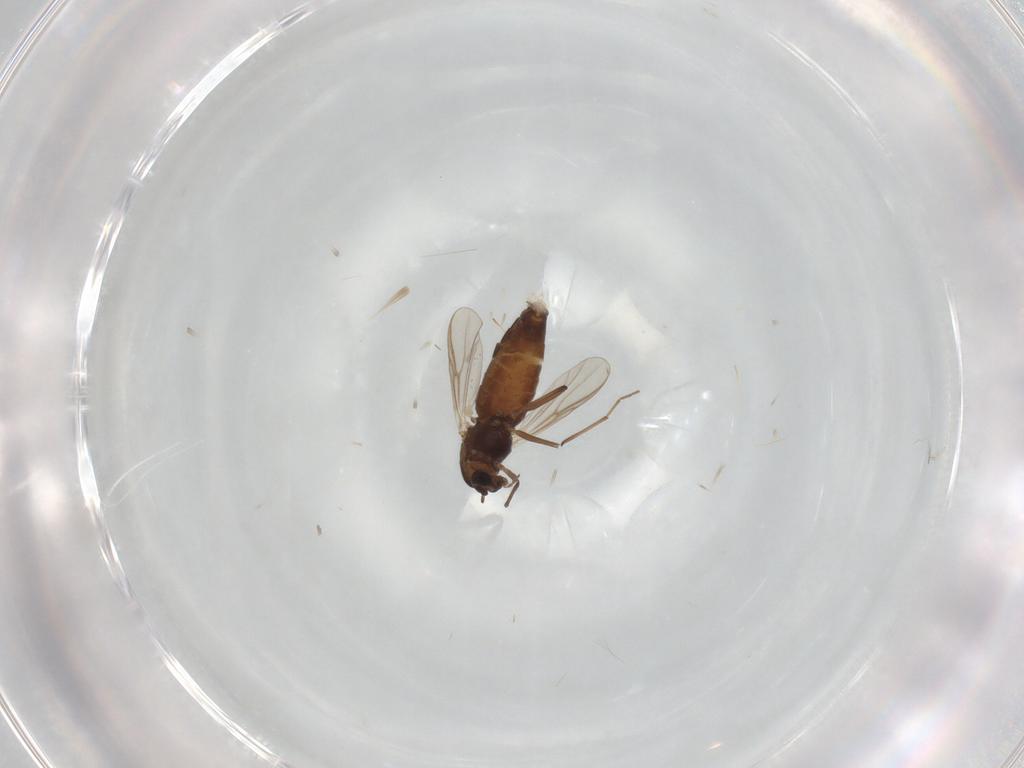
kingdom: Animalia
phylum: Arthropoda
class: Insecta
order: Diptera
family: Chironomidae
